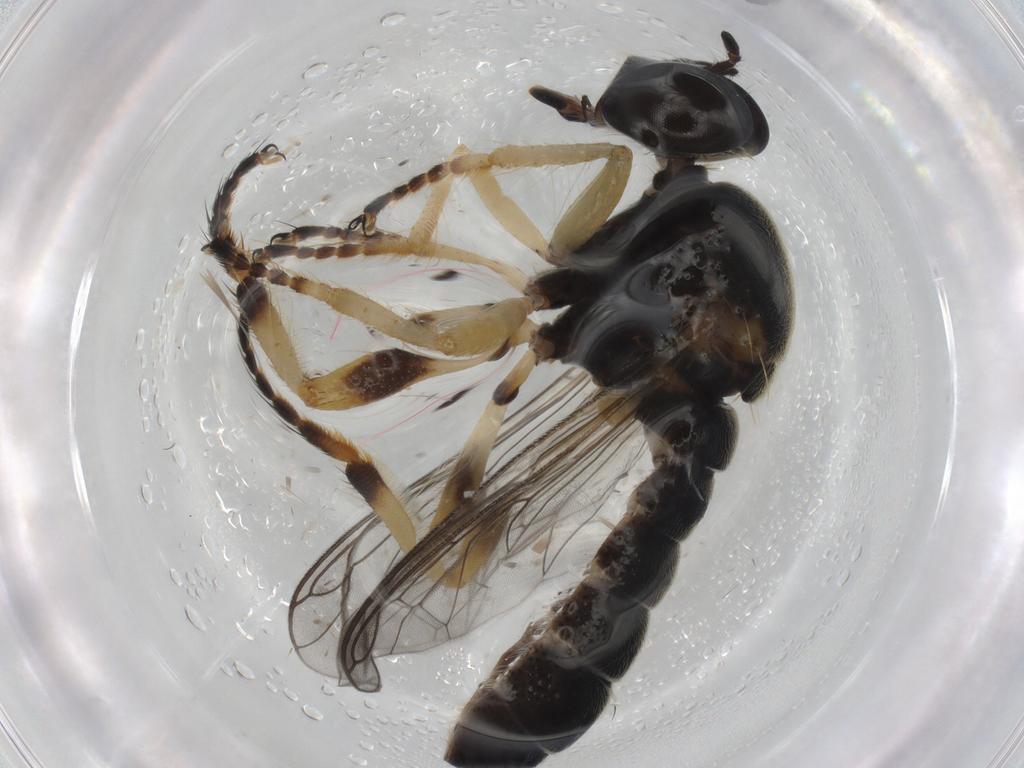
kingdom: Animalia
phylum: Arthropoda
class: Insecta
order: Diptera
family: Asilidae
